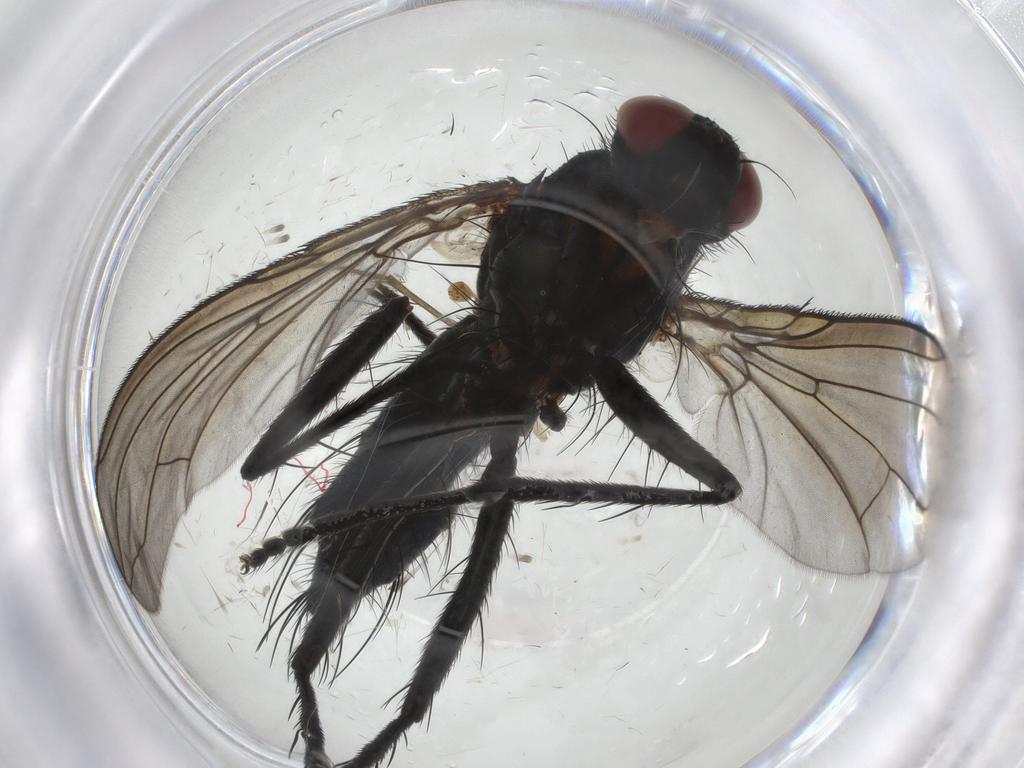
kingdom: Animalia
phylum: Arthropoda
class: Insecta
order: Diptera
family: Tachinidae
